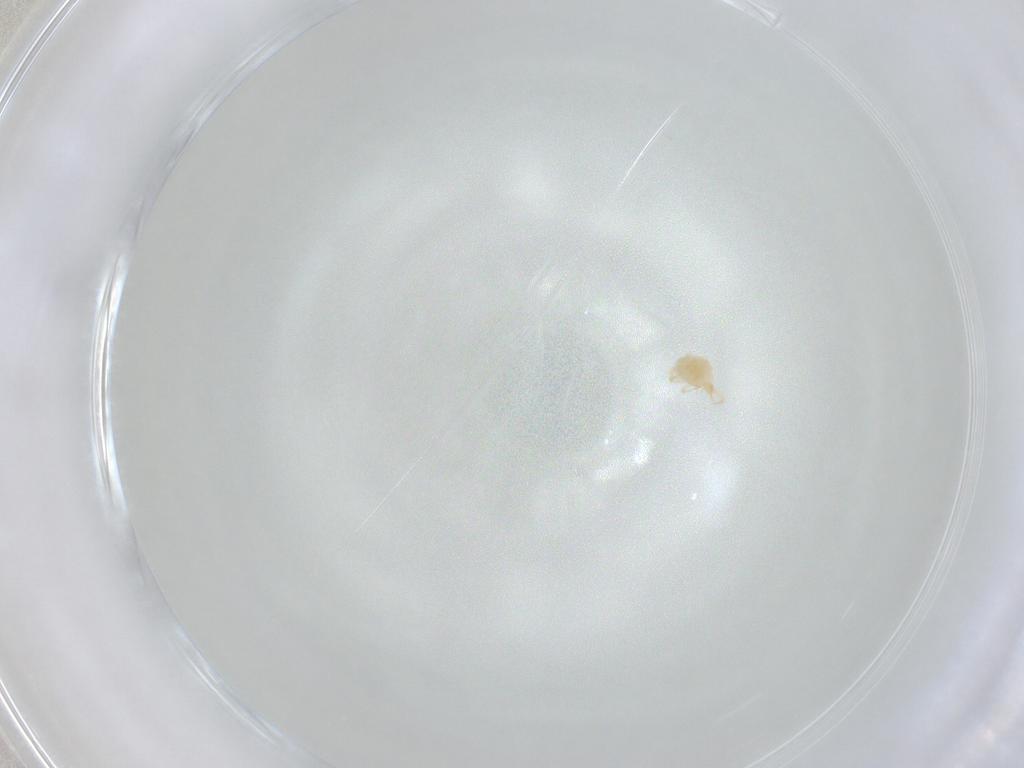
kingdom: Animalia
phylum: Arthropoda
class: Arachnida
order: Trombidiformes
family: Cunaxidae
